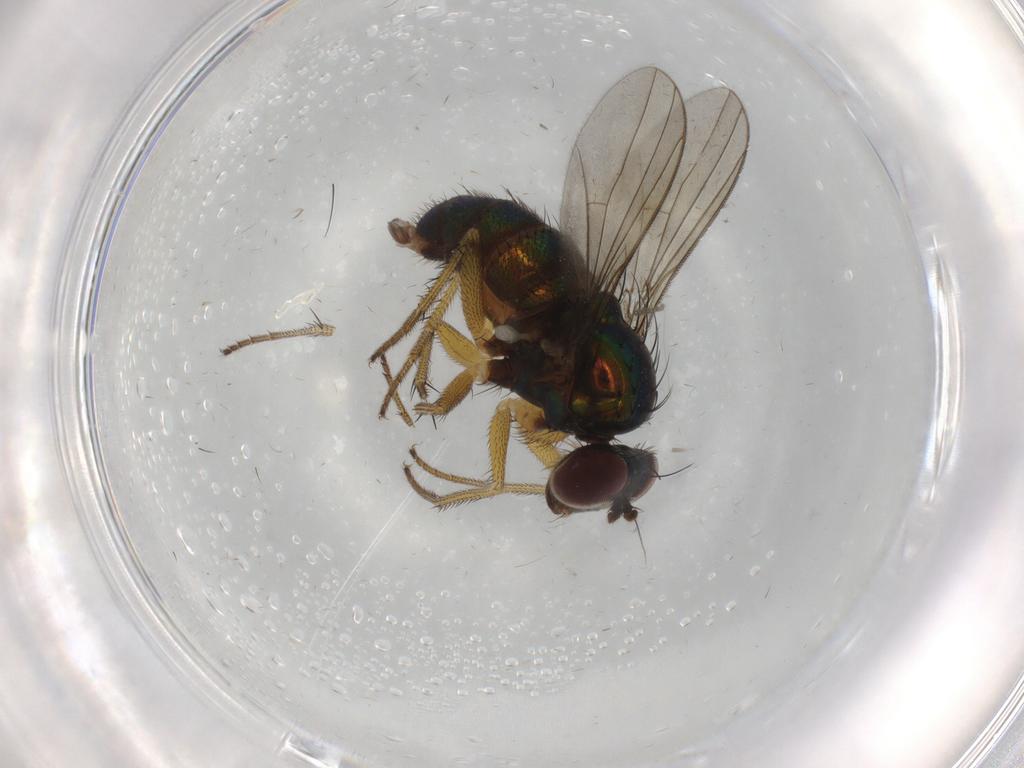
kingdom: Animalia
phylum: Arthropoda
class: Insecta
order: Diptera
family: Dolichopodidae
